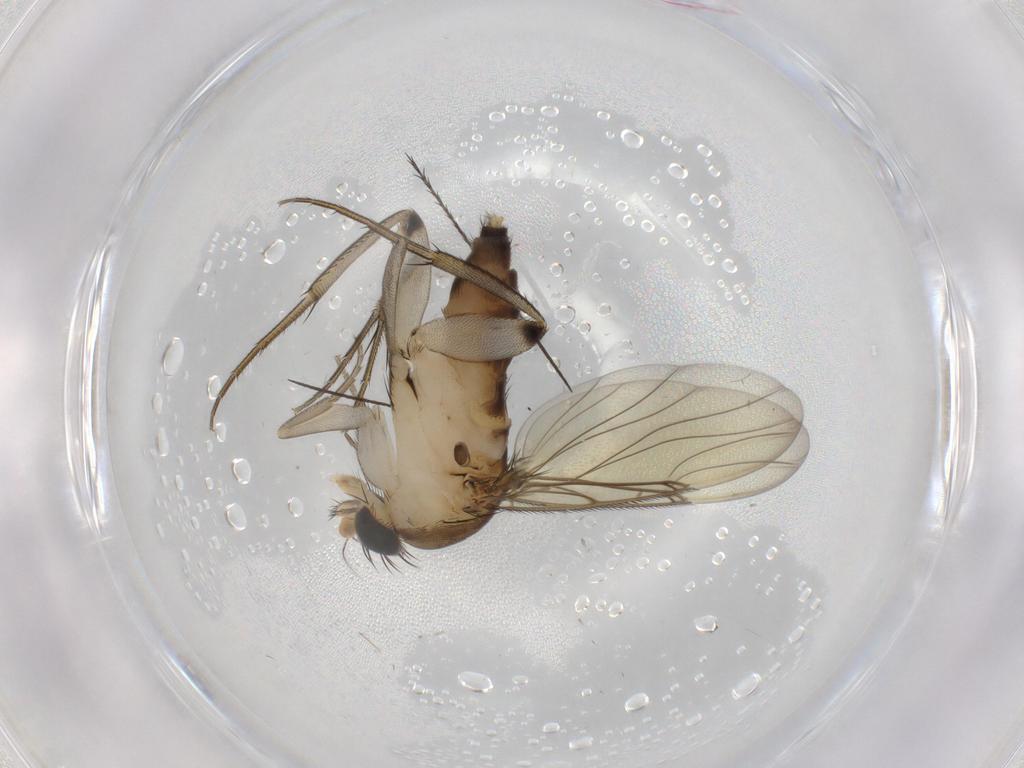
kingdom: Animalia
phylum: Arthropoda
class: Insecta
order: Diptera
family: Phoridae
